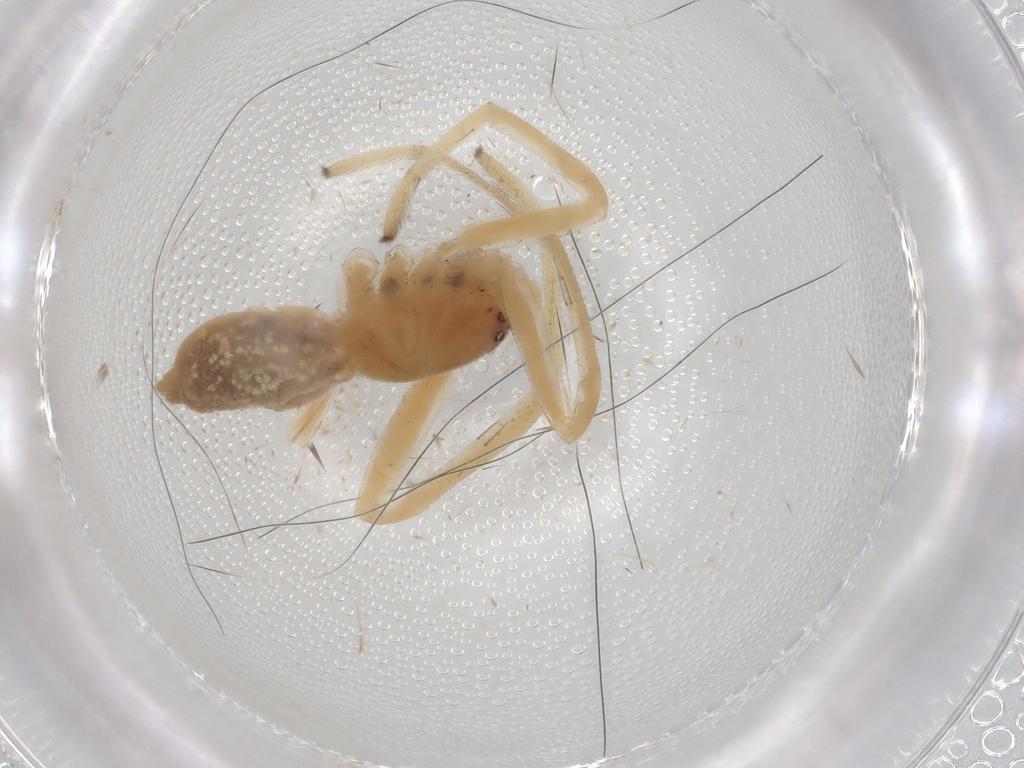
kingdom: Animalia
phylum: Arthropoda
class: Arachnida
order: Araneae
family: Cheiracanthiidae
